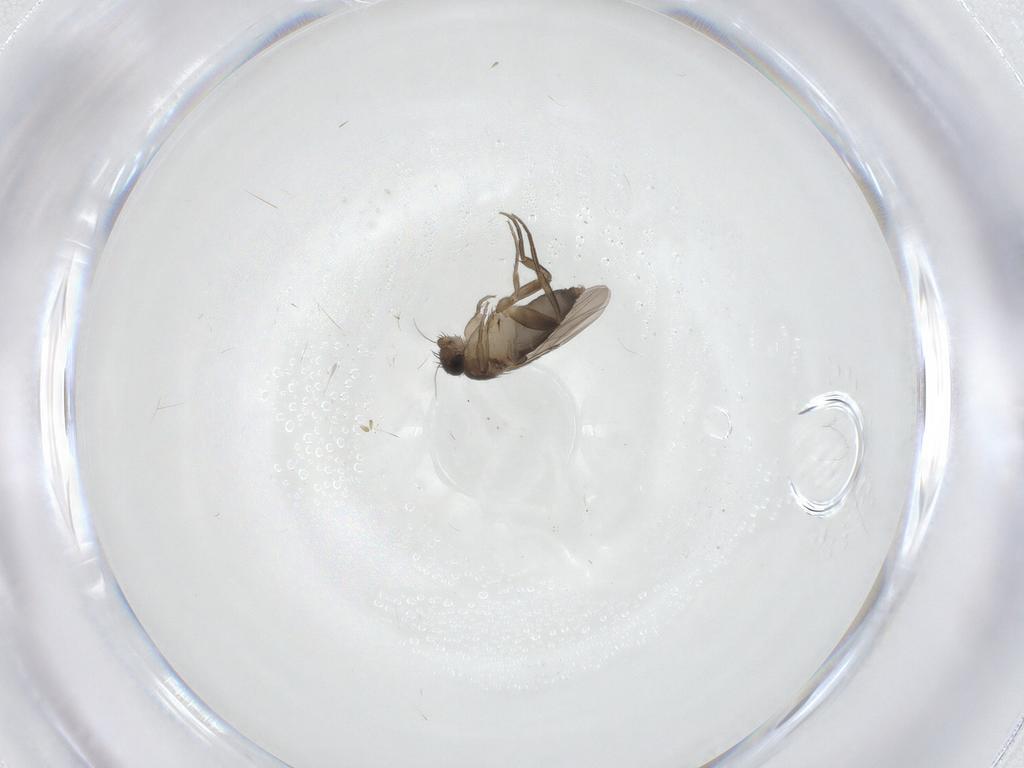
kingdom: Animalia
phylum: Arthropoda
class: Insecta
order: Diptera
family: Phoridae
